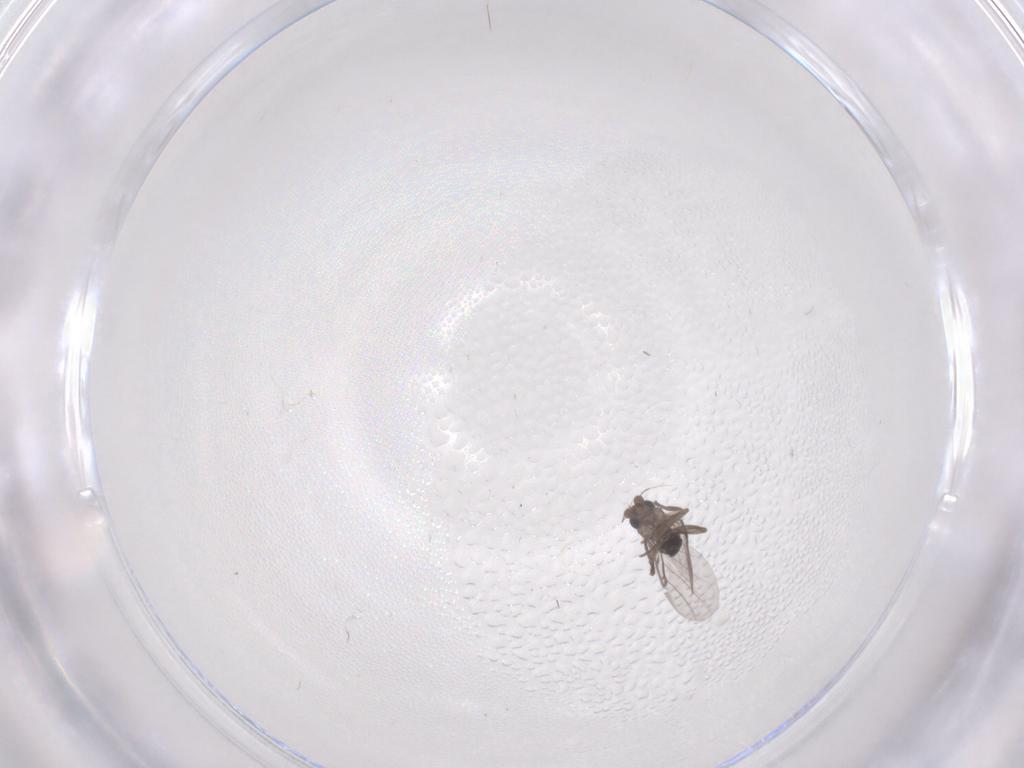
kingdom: Animalia
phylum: Arthropoda
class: Insecta
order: Diptera
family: Phoridae
